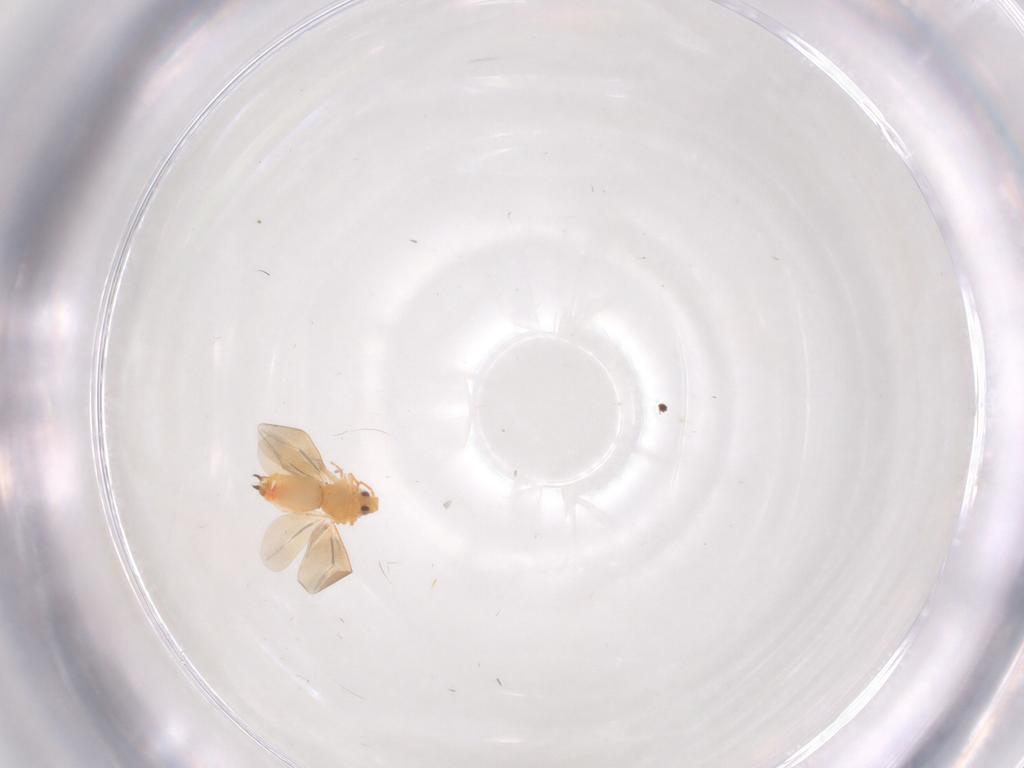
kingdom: Animalia
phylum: Arthropoda
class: Insecta
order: Hemiptera
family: Aleyrodidae
